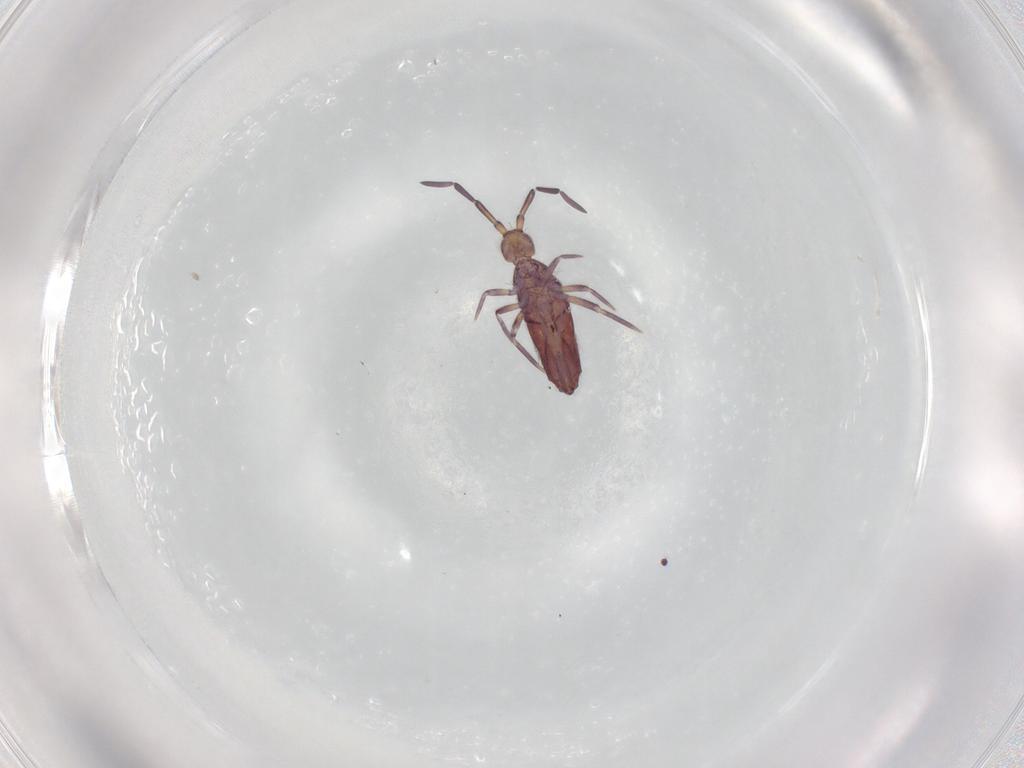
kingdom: Animalia
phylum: Arthropoda
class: Collembola
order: Entomobryomorpha
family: Entomobryidae
